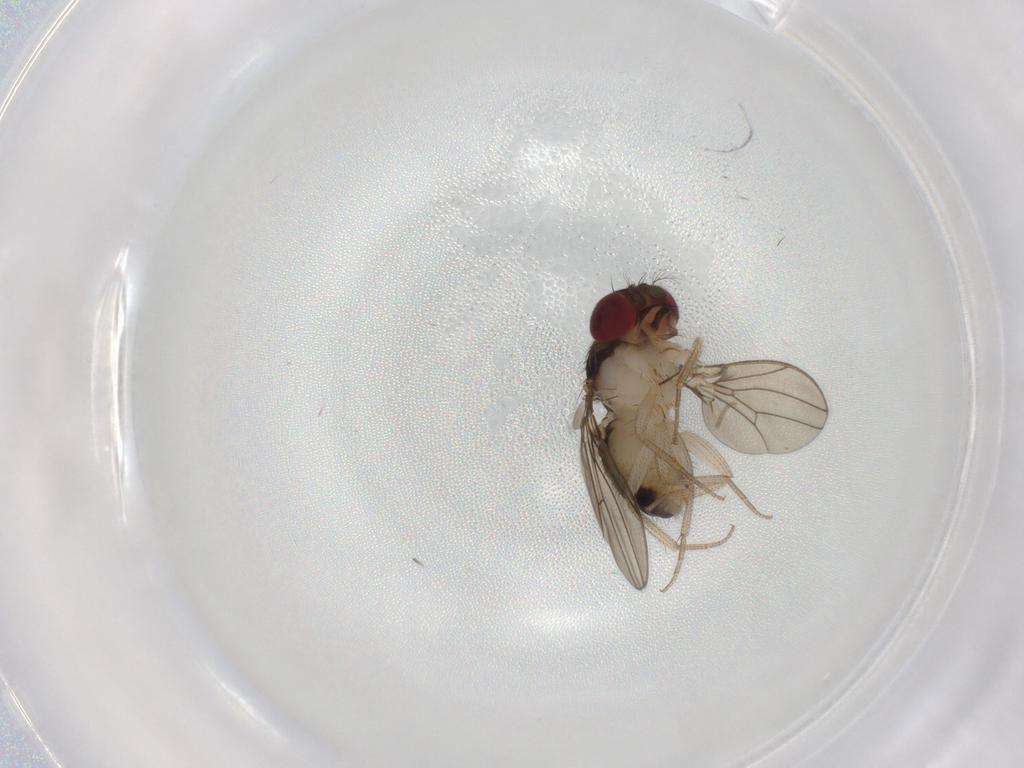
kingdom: Animalia
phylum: Arthropoda
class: Insecta
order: Diptera
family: Drosophilidae
